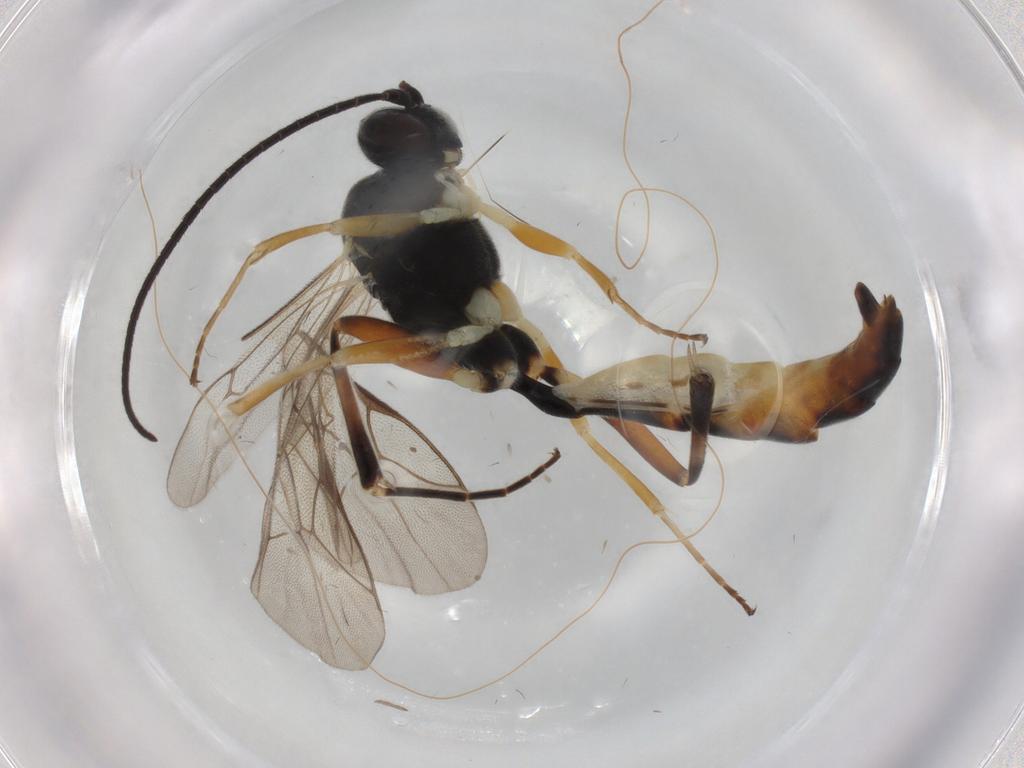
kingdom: Animalia
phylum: Arthropoda
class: Insecta
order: Hymenoptera
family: Ichneumonidae
